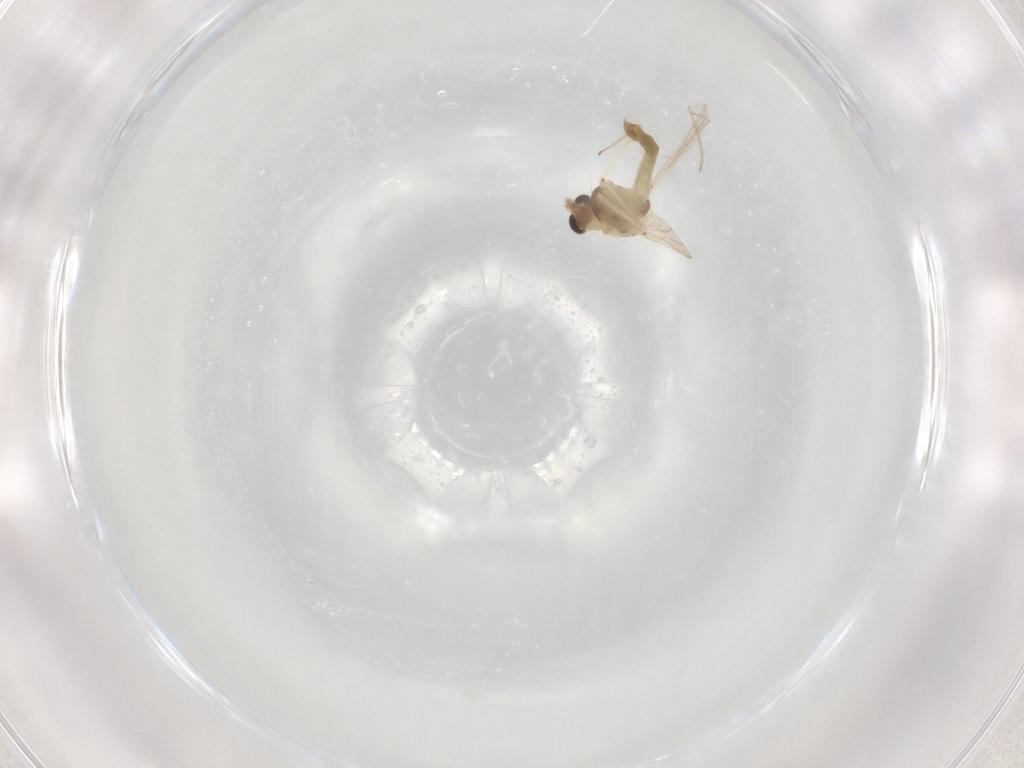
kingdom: Animalia
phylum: Arthropoda
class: Insecta
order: Diptera
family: Chironomidae
